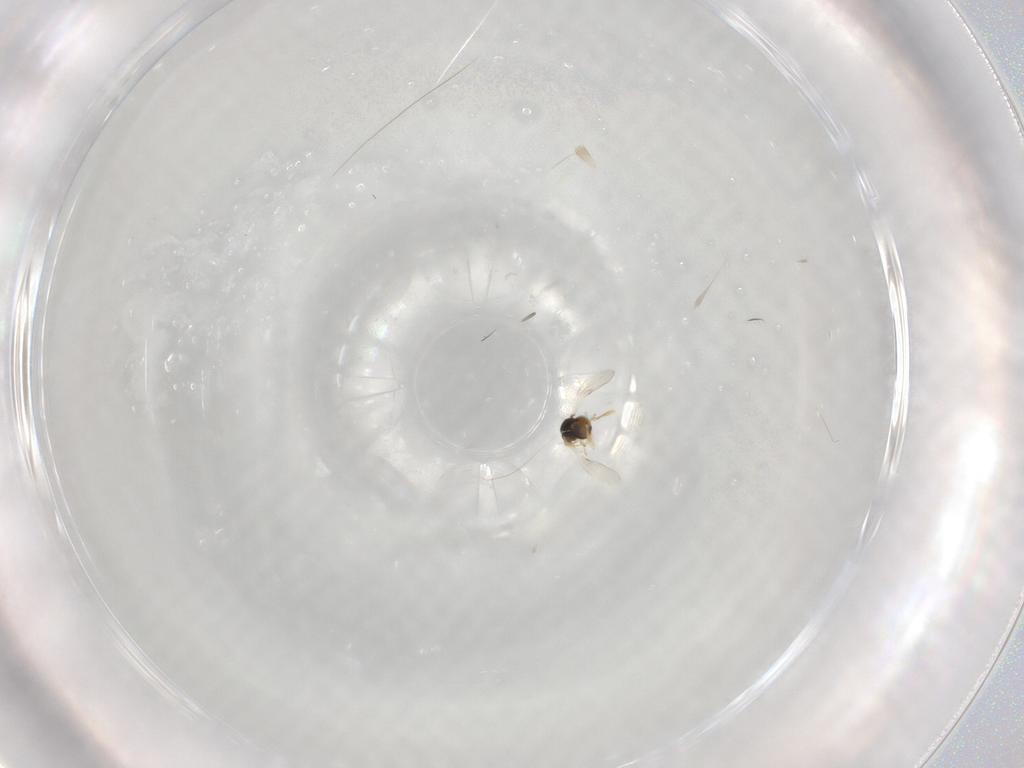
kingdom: Animalia
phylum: Arthropoda
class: Insecta
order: Hymenoptera
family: Encyrtidae
